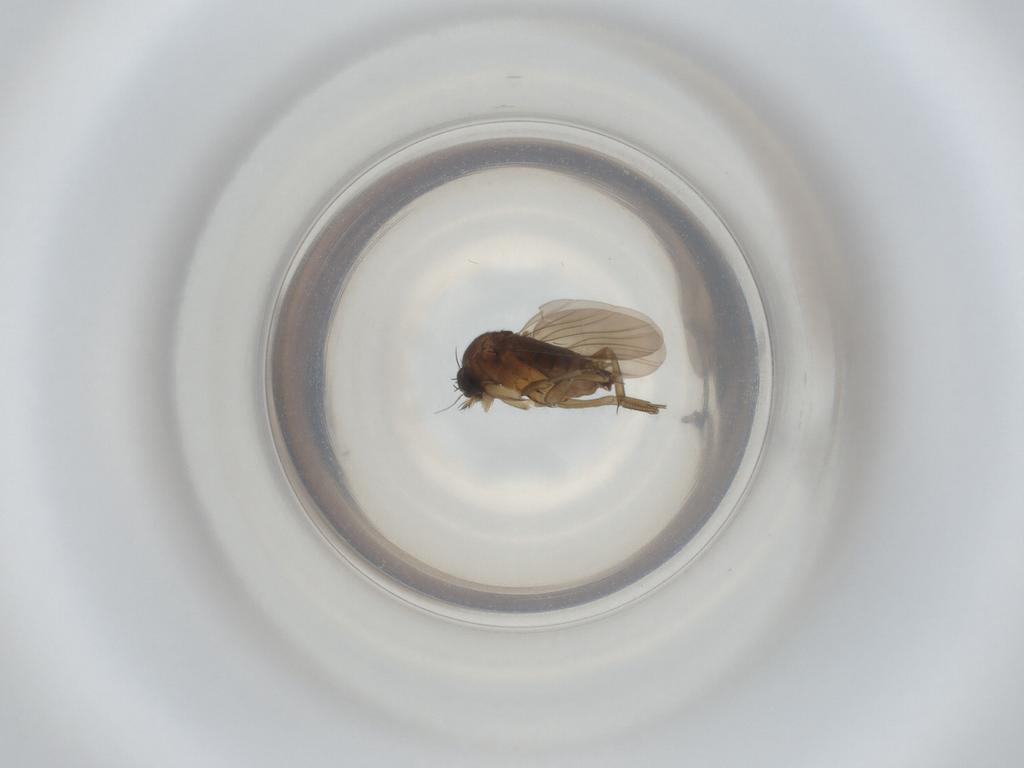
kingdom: Animalia
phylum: Arthropoda
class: Insecta
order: Diptera
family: Phoridae
